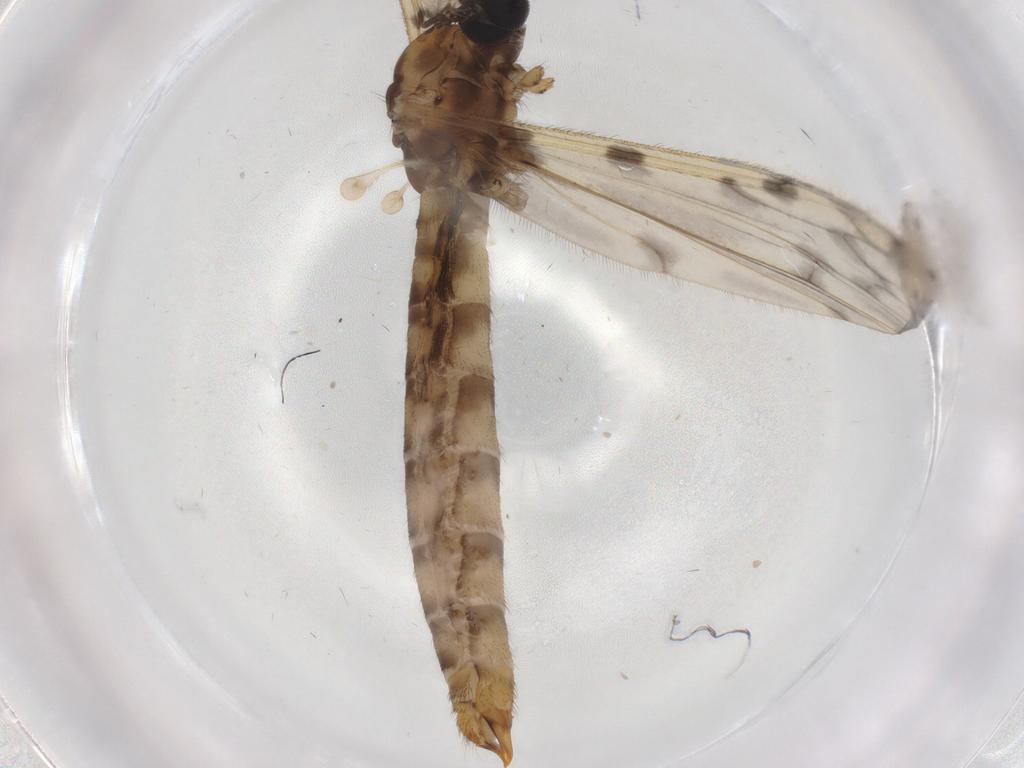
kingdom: Animalia
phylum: Arthropoda
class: Insecta
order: Diptera
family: Limoniidae
